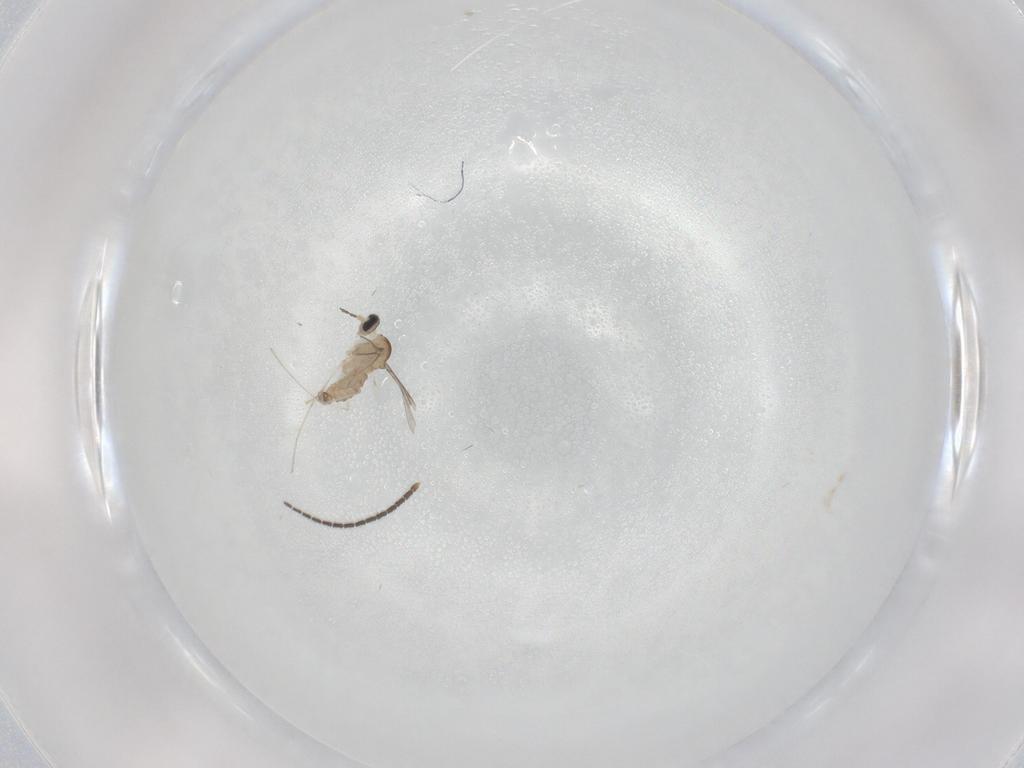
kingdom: Animalia
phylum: Arthropoda
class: Insecta
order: Diptera
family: Cecidomyiidae
